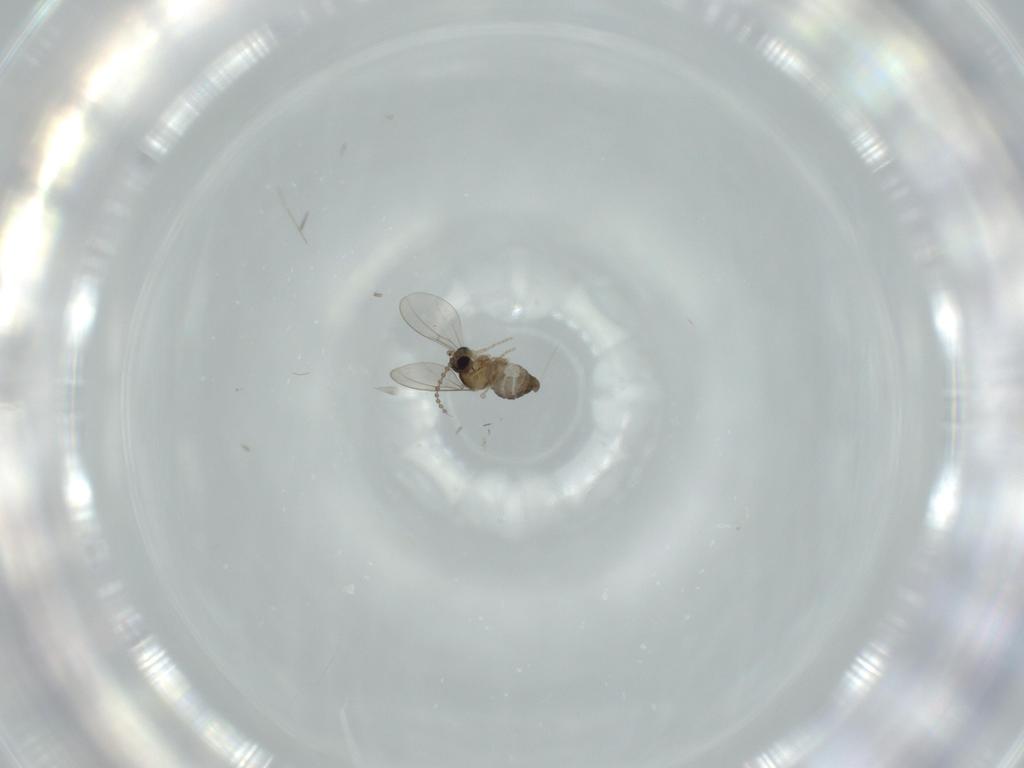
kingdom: Animalia
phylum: Arthropoda
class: Insecta
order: Diptera
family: Cecidomyiidae
